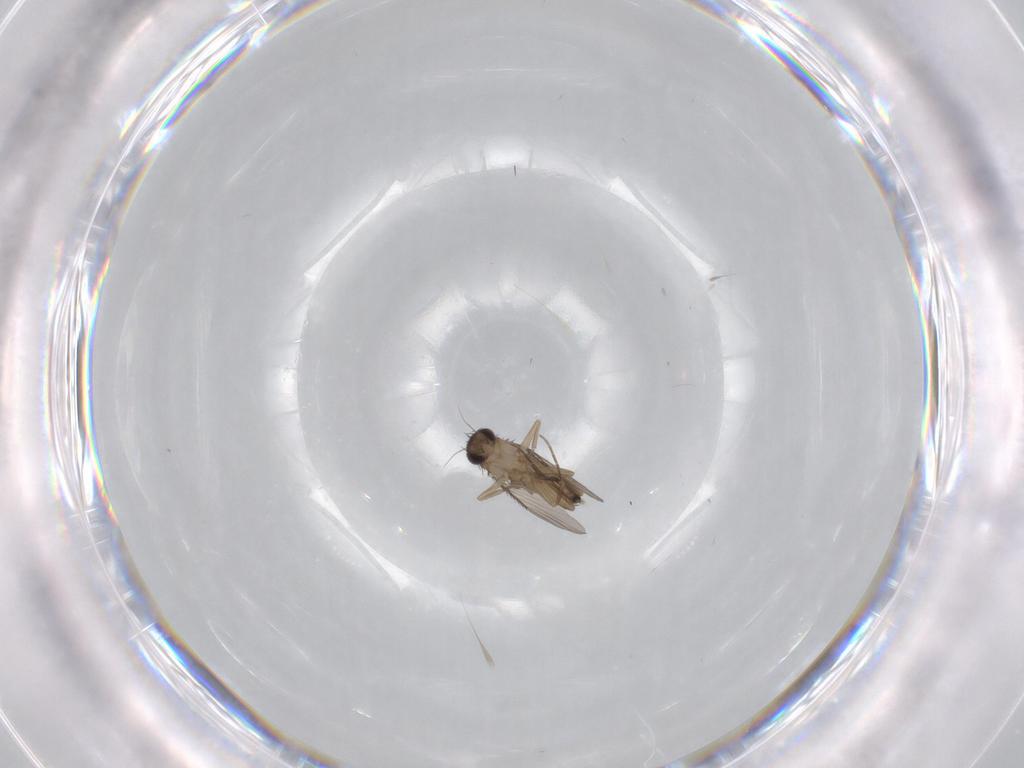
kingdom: Animalia
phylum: Arthropoda
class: Insecta
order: Diptera
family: Phoridae
